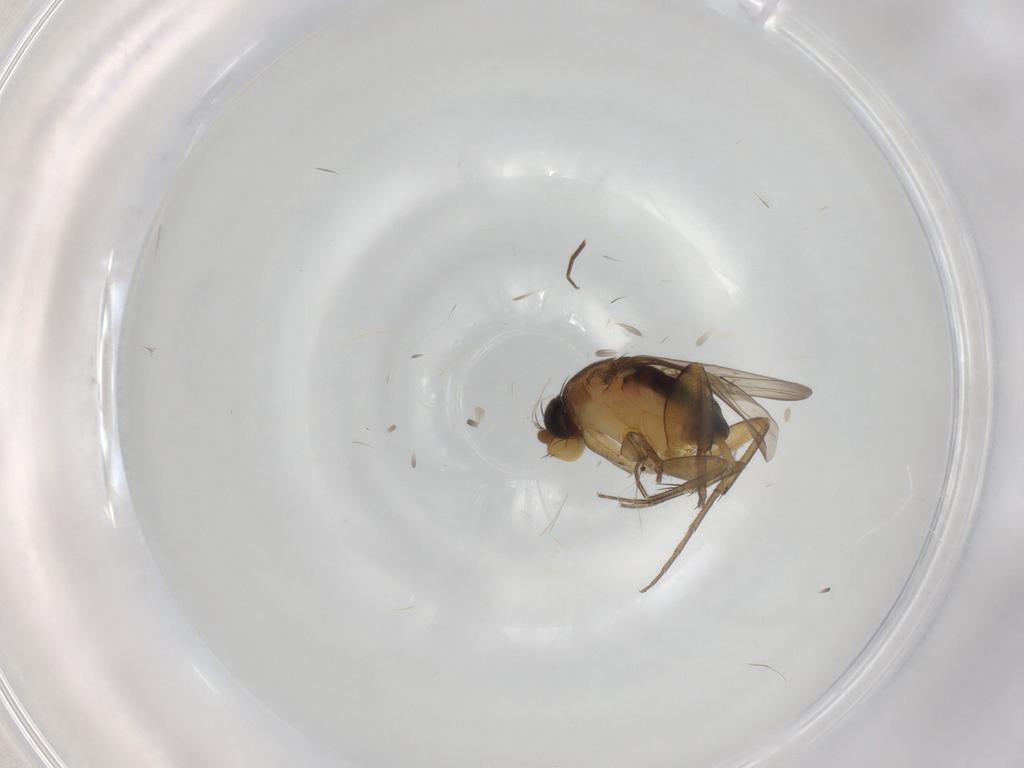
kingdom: Animalia
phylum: Arthropoda
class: Insecta
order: Diptera
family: Phoridae
